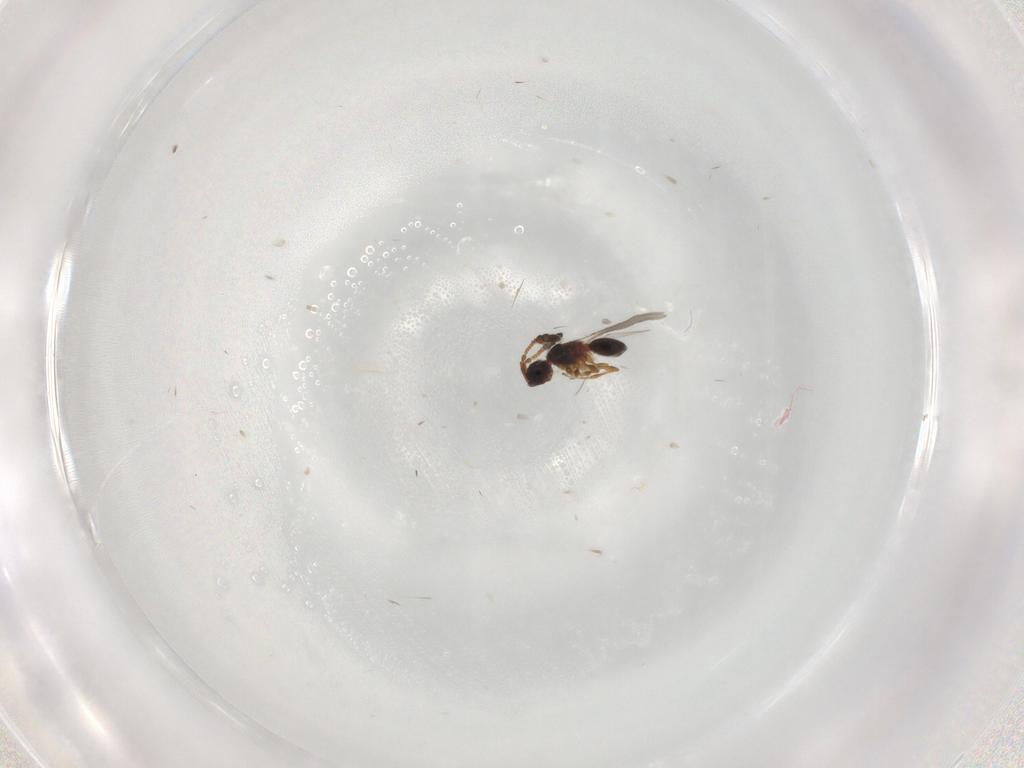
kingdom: Animalia
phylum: Arthropoda
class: Insecta
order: Hymenoptera
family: Diapriidae
